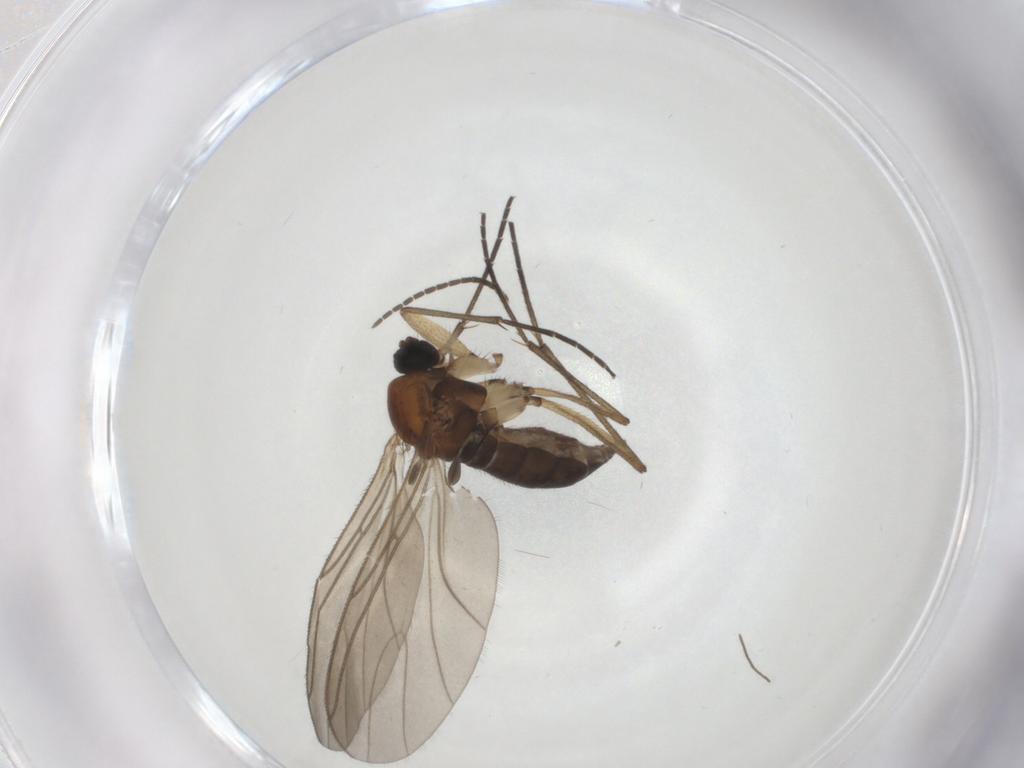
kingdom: Animalia
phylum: Arthropoda
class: Insecta
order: Diptera
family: Sciaridae
